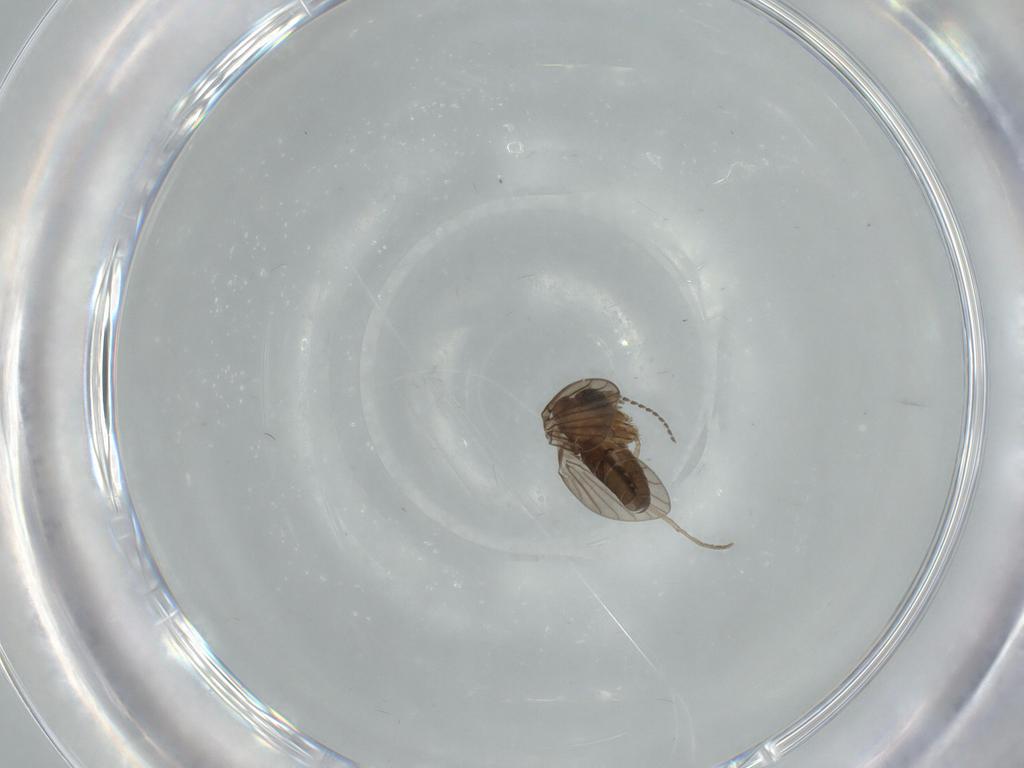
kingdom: Animalia
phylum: Arthropoda
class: Insecta
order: Diptera
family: Psychodidae
